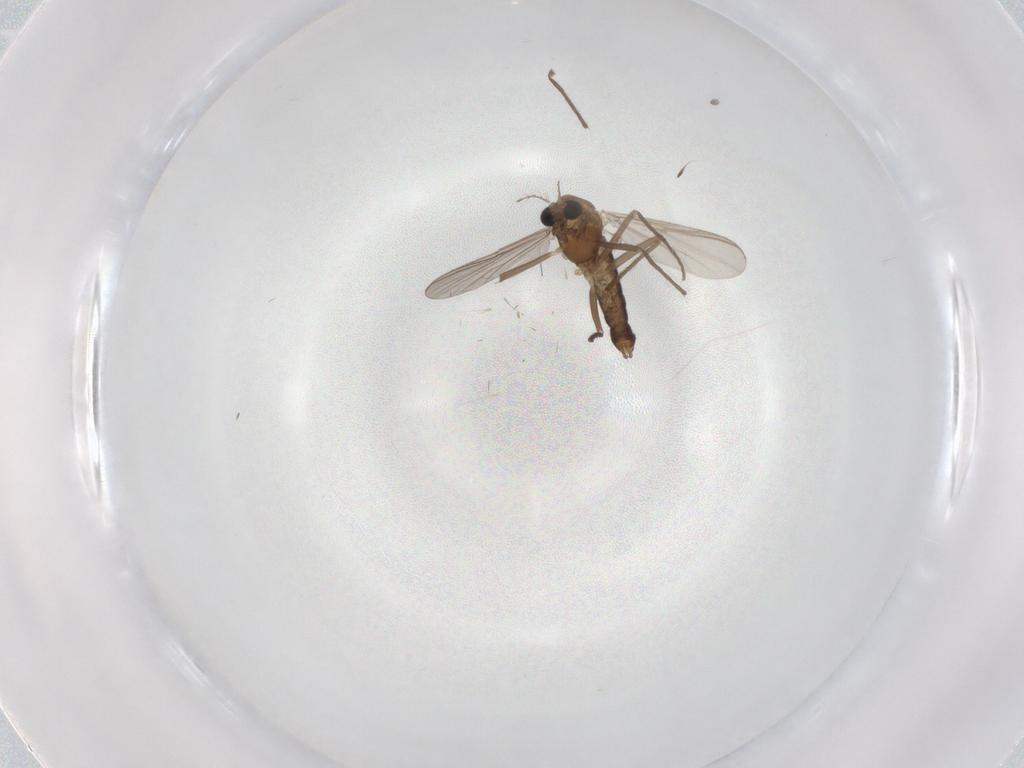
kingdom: Animalia
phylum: Arthropoda
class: Insecta
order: Diptera
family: Chironomidae
